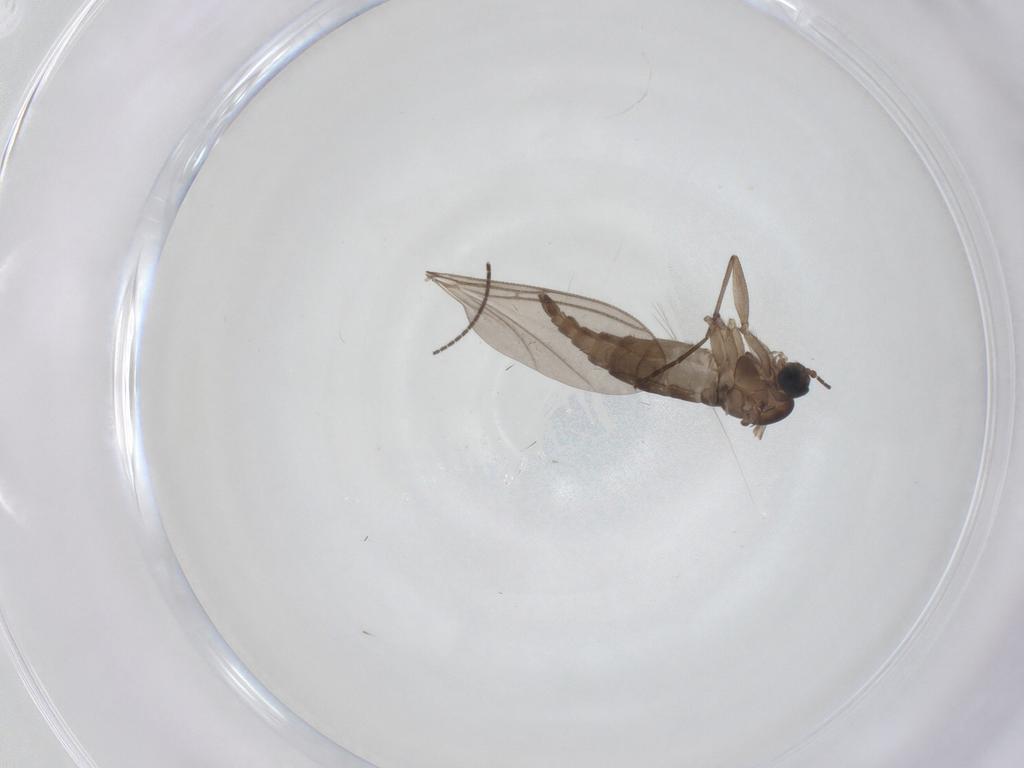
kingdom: Animalia
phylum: Arthropoda
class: Insecta
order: Diptera
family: Sciaridae
